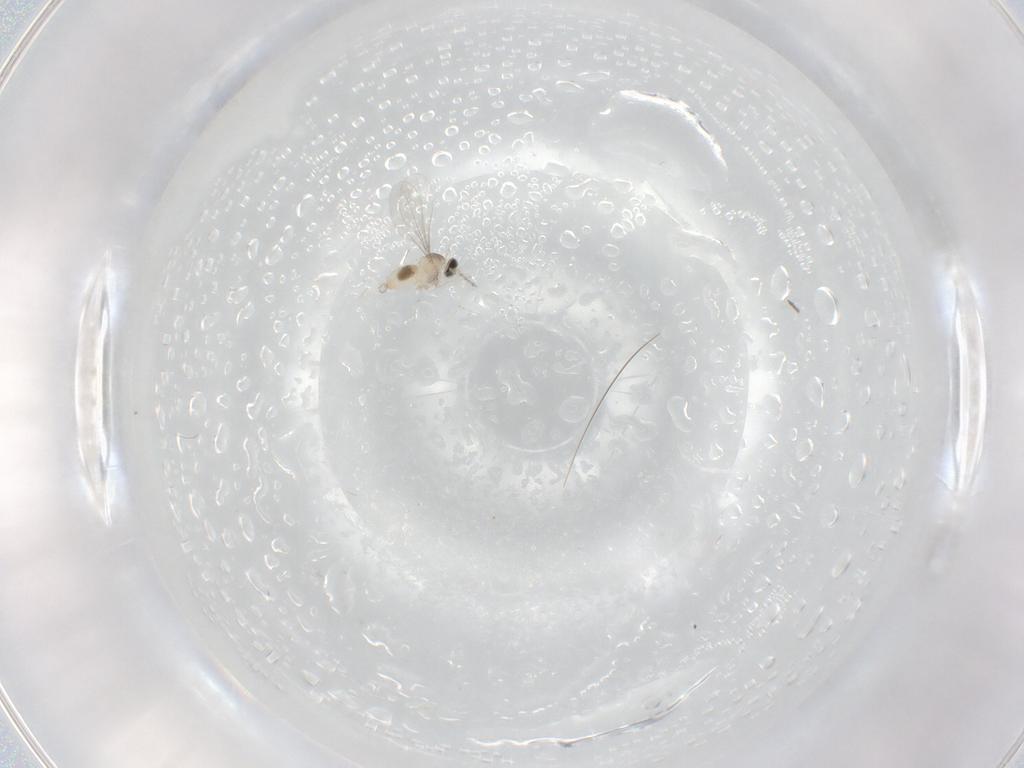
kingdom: Animalia
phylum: Arthropoda
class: Insecta
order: Diptera
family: Cecidomyiidae
